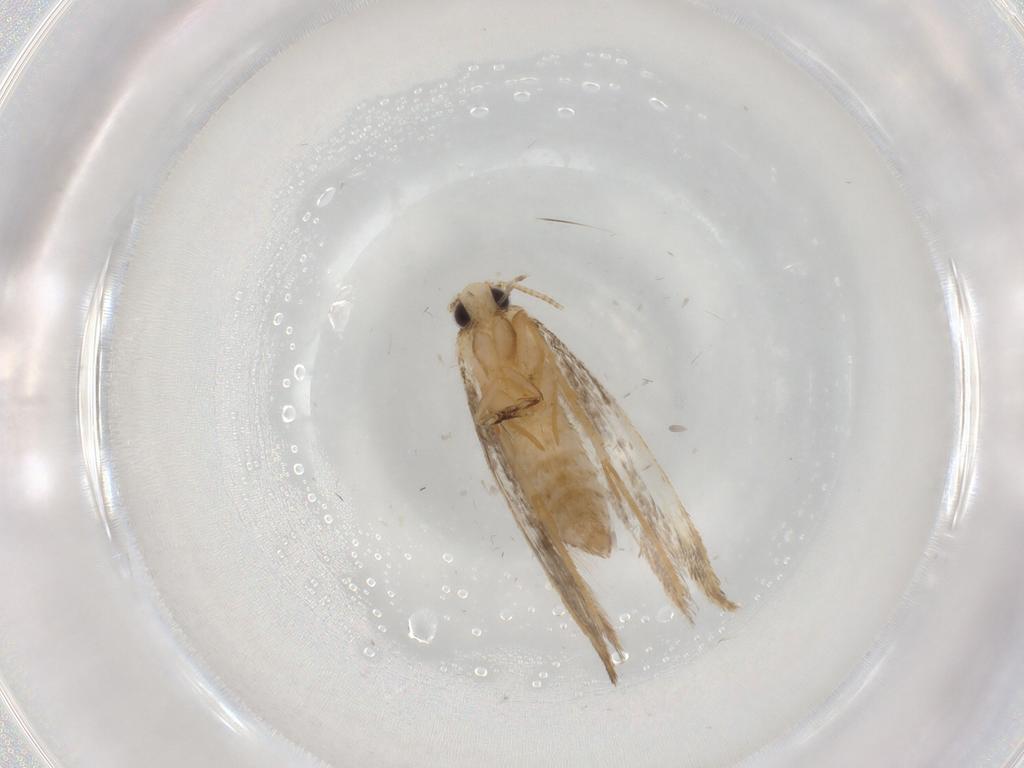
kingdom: Animalia
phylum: Arthropoda
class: Insecta
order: Lepidoptera
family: Tineidae
